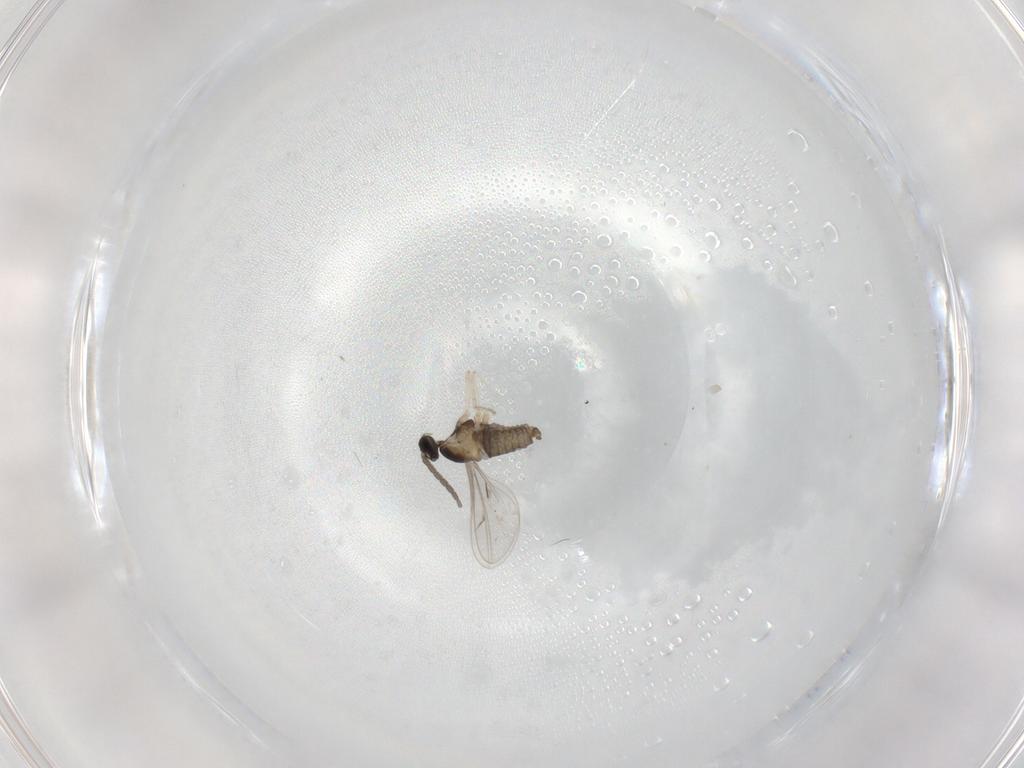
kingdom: Animalia
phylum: Arthropoda
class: Insecta
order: Diptera
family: Cecidomyiidae
